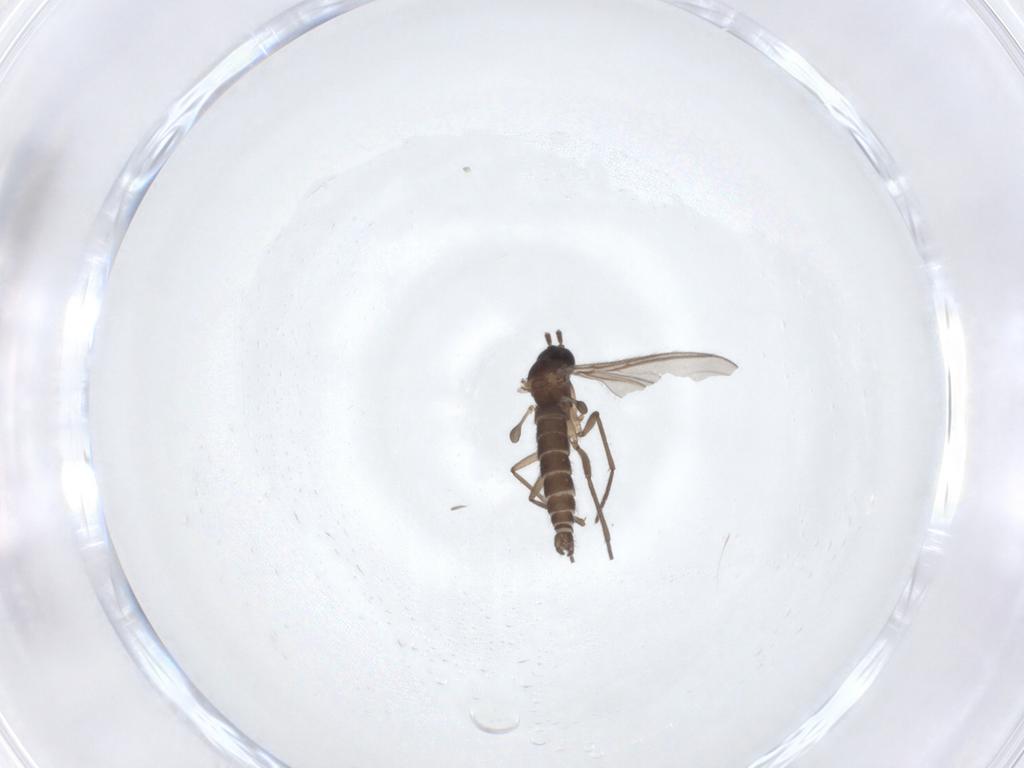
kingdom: Animalia
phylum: Arthropoda
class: Insecta
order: Diptera
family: Sciaridae
